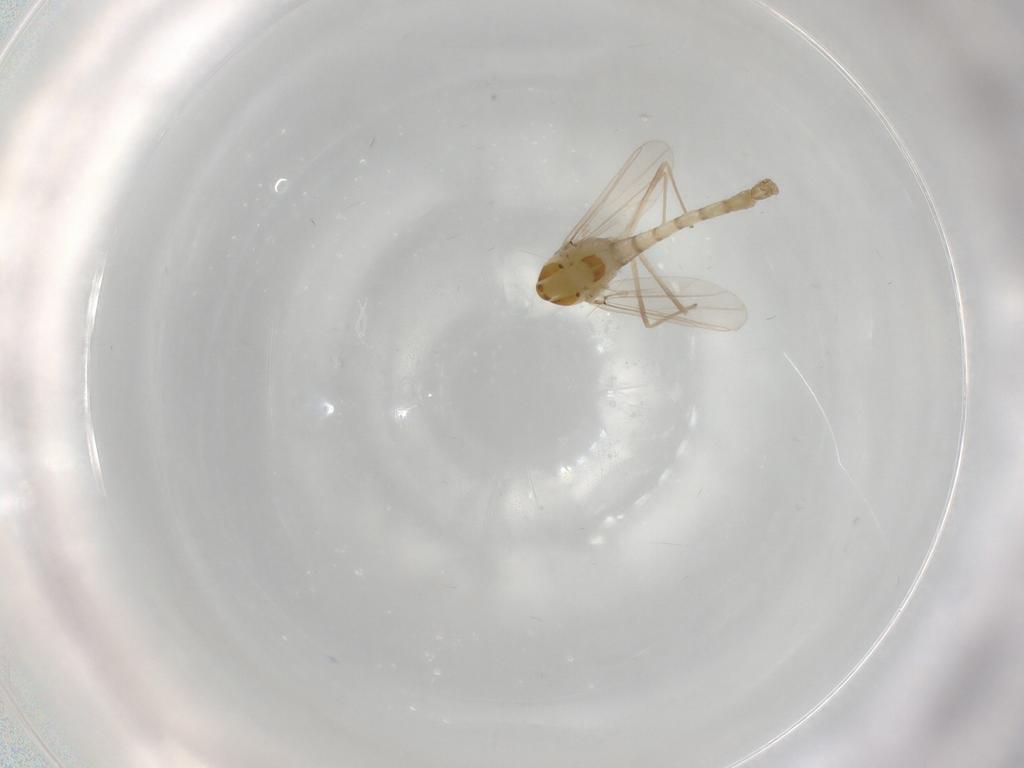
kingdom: Animalia
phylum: Arthropoda
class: Insecta
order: Diptera
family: Chironomidae
